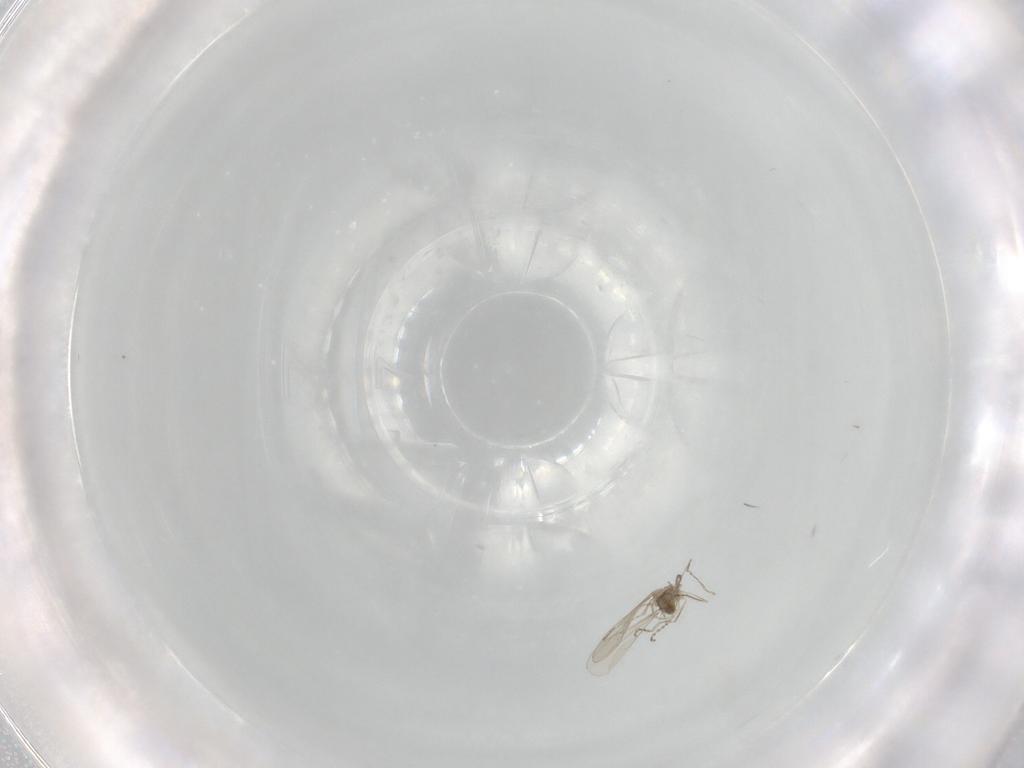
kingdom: Animalia
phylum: Arthropoda
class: Insecta
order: Diptera
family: Cecidomyiidae
